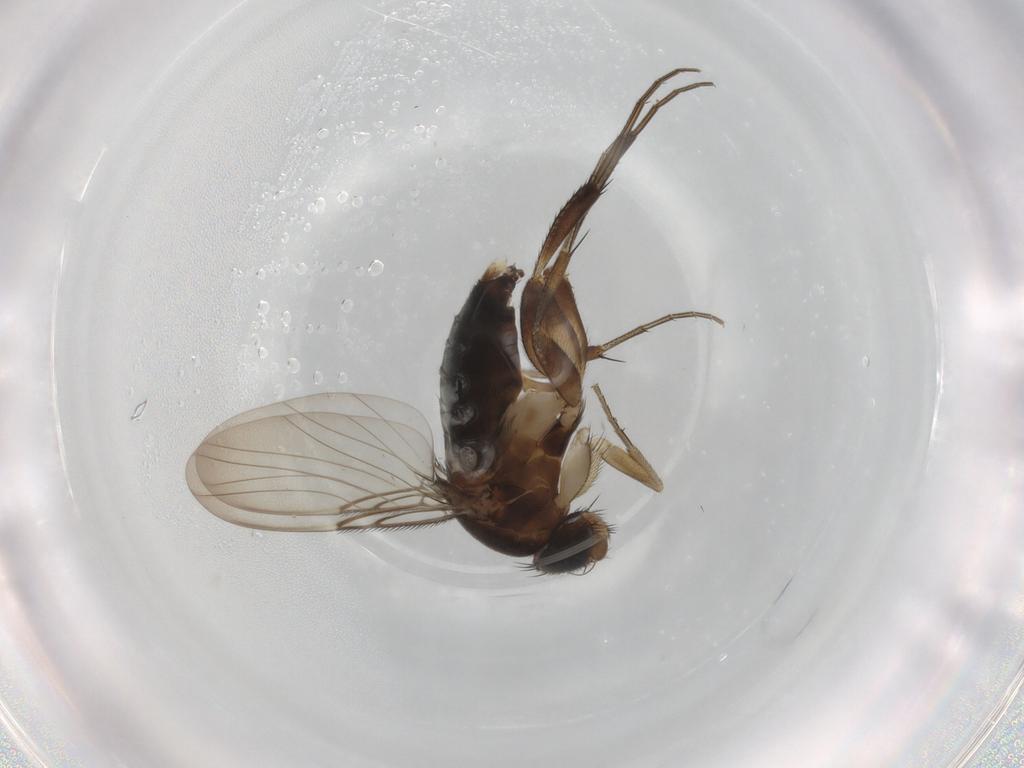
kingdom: Animalia
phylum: Arthropoda
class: Insecta
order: Diptera
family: Phoridae
